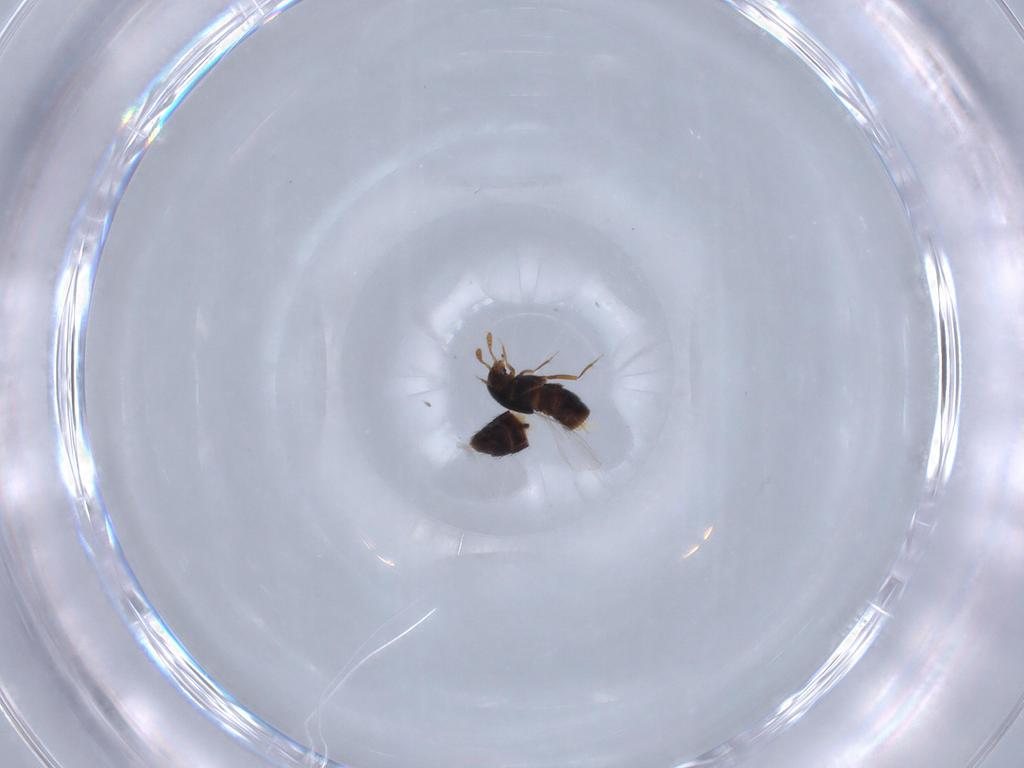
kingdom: Animalia
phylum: Arthropoda
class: Insecta
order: Coleoptera
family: Staphylinidae
